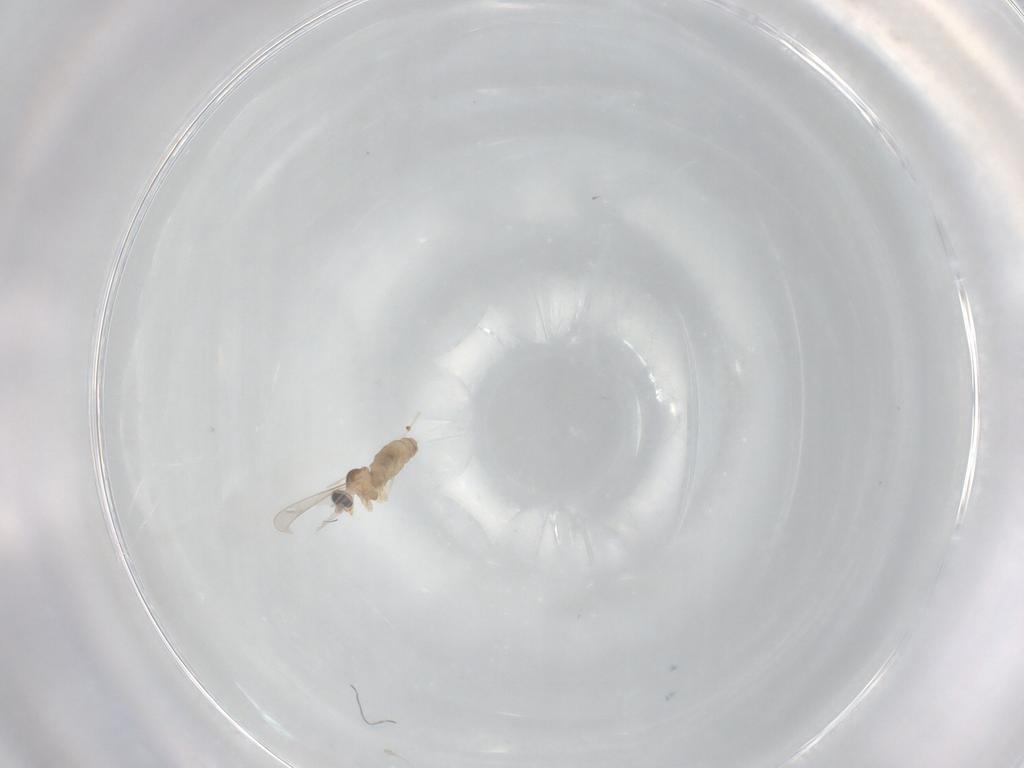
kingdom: Animalia
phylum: Arthropoda
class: Insecta
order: Diptera
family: Cecidomyiidae
